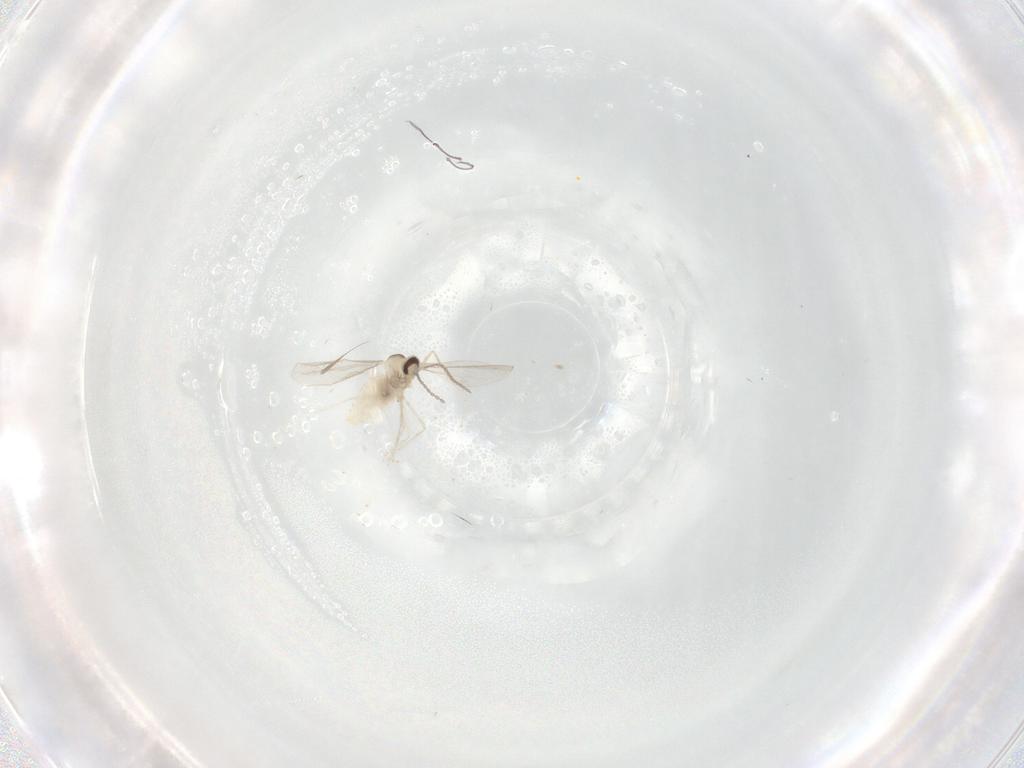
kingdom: Animalia
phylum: Arthropoda
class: Insecta
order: Diptera
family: Cecidomyiidae
